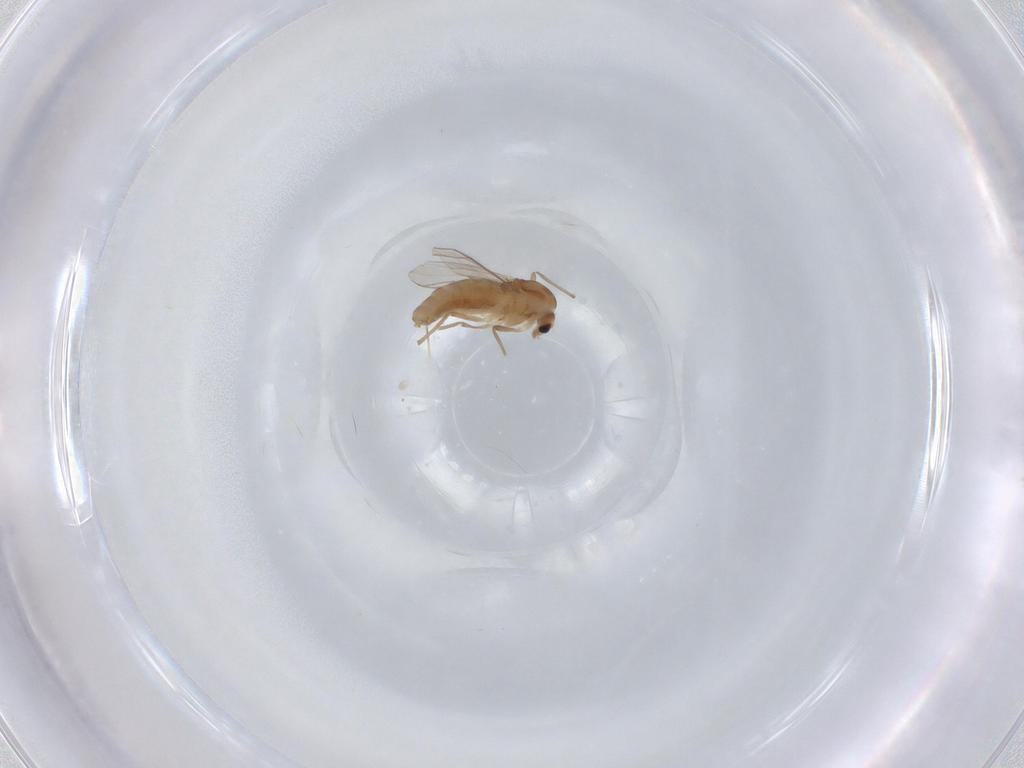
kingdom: Animalia
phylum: Arthropoda
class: Insecta
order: Diptera
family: Chironomidae
